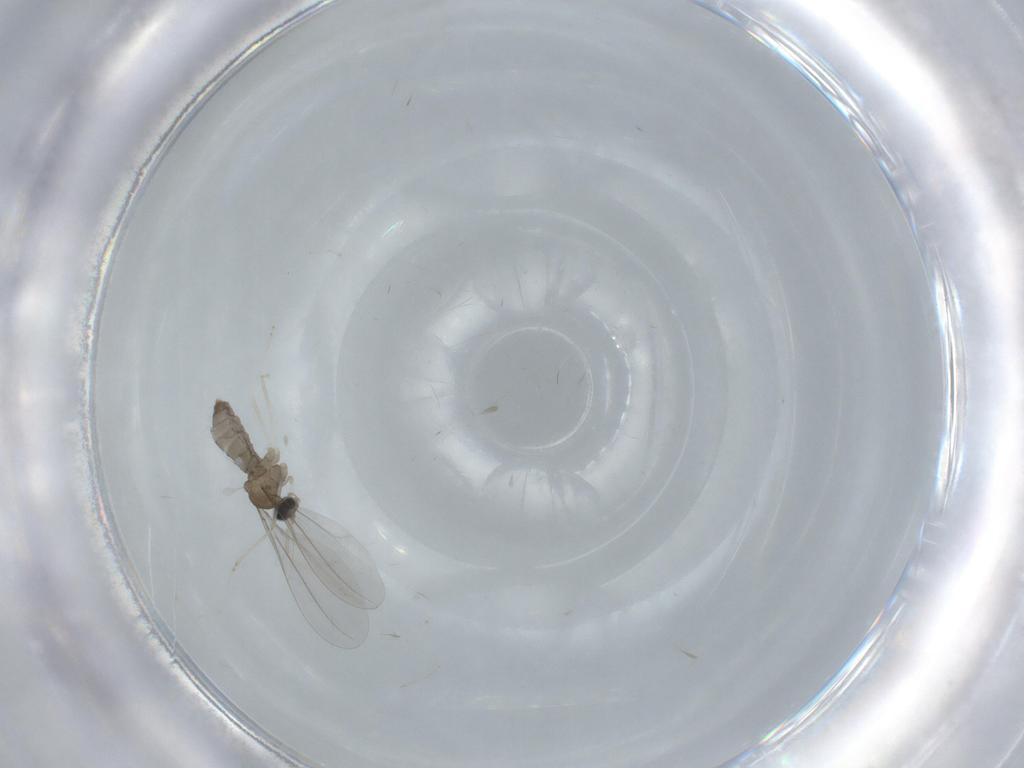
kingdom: Animalia
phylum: Arthropoda
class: Insecta
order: Diptera
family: Cecidomyiidae
